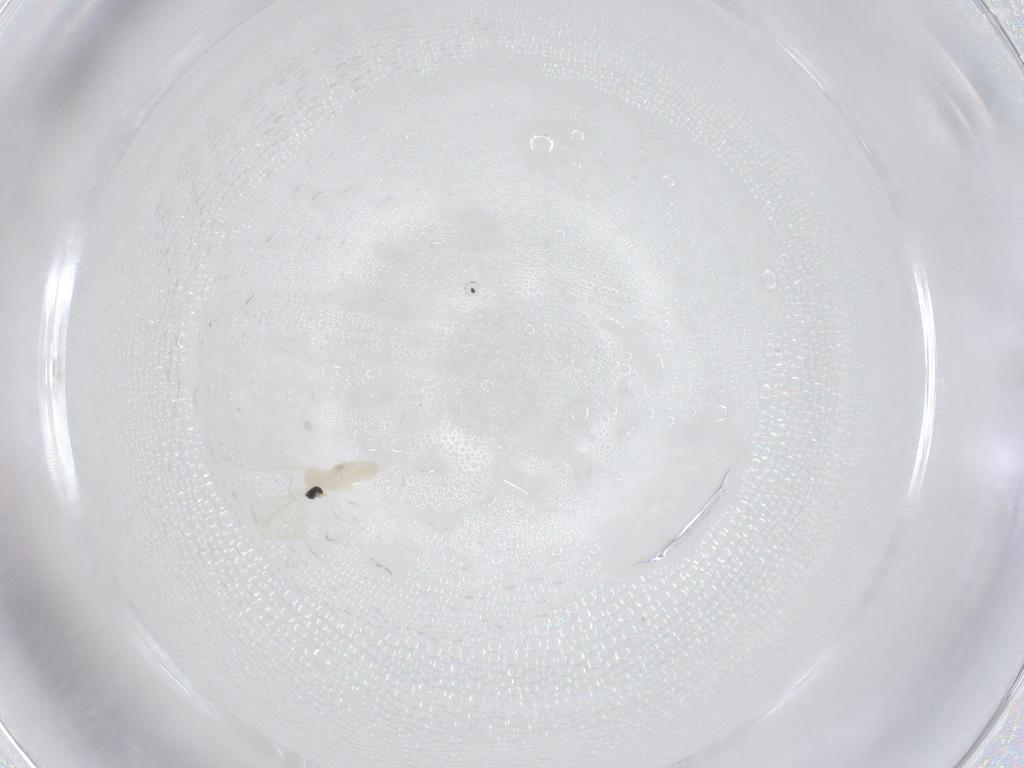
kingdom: Animalia
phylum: Arthropoda
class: Insecta
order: Diptera
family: Cecidomyiidae
